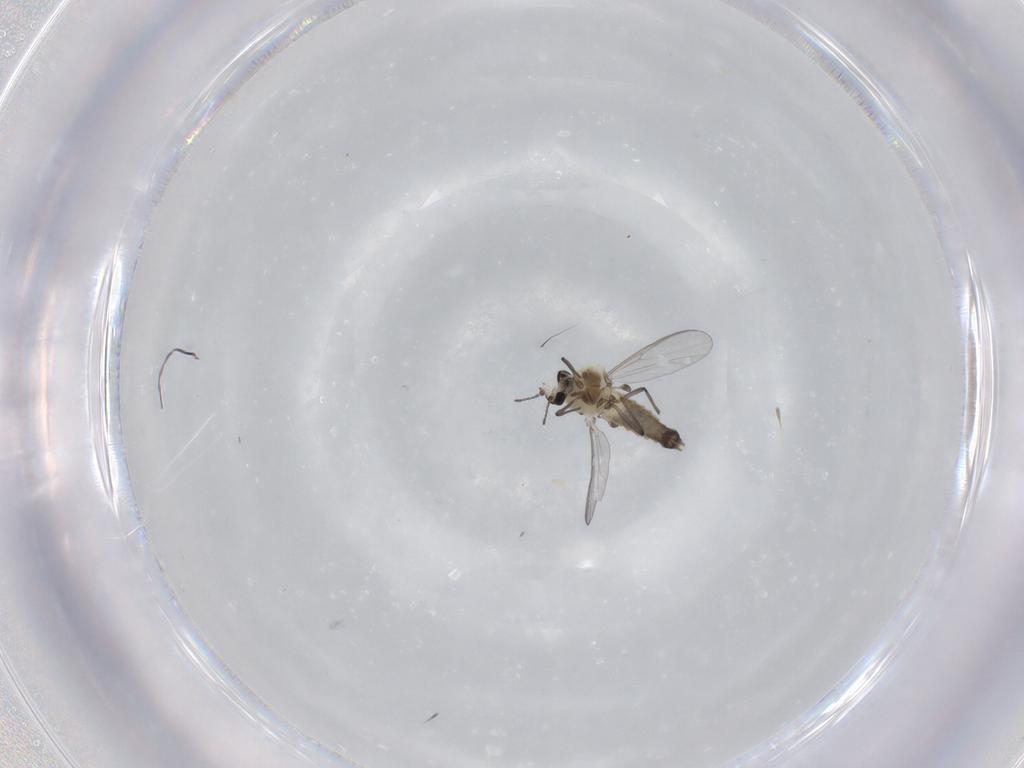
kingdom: Animalia
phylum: Arthropoda
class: Insecta
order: Diptera
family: Chironomidae
